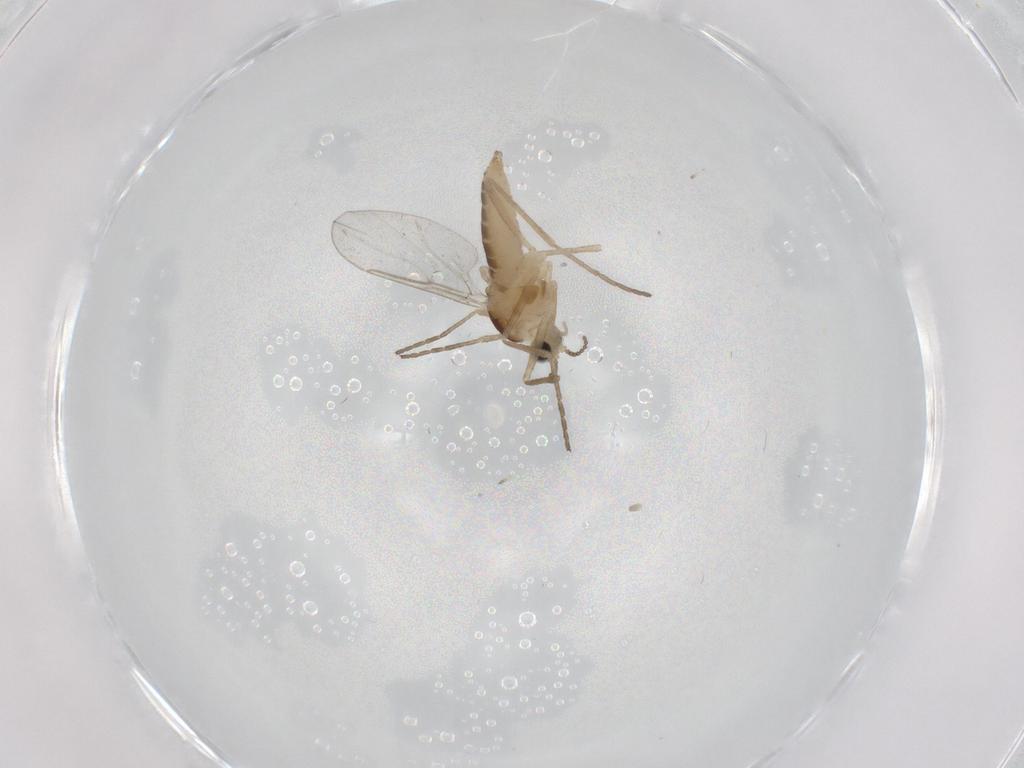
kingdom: Animalia
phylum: Arthropoda
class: Insecta
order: Diptera
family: Cecidomyiidae
